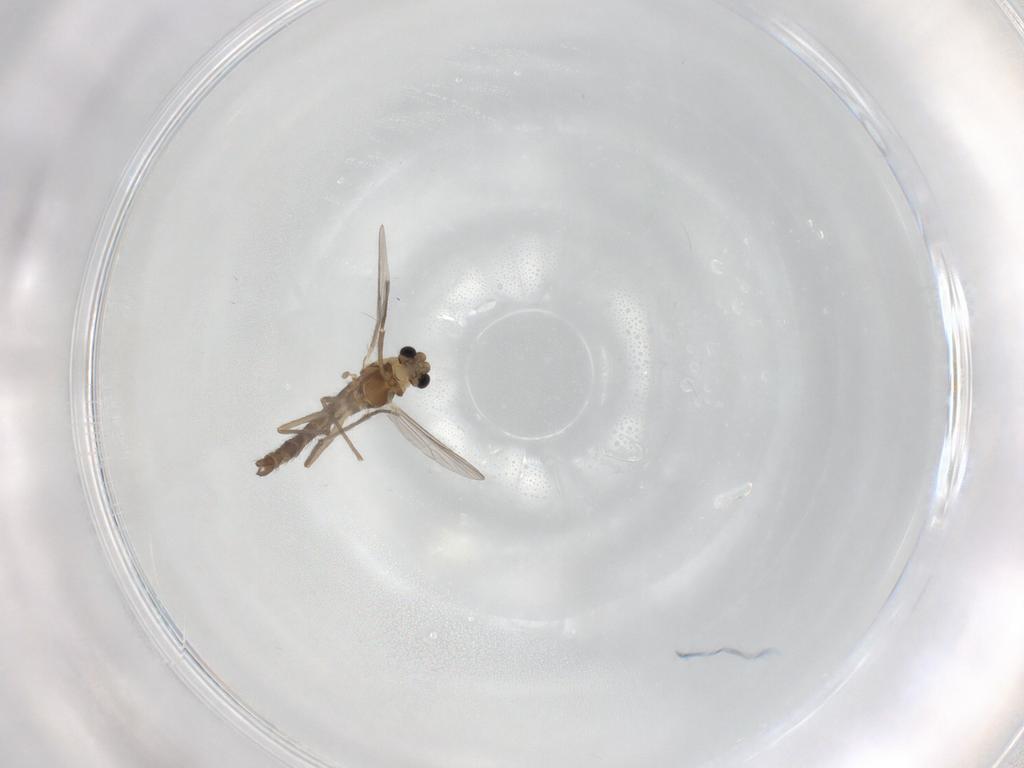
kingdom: Animalia
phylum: Arthropoda
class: Insecta
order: Diptera
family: Chironomidae
